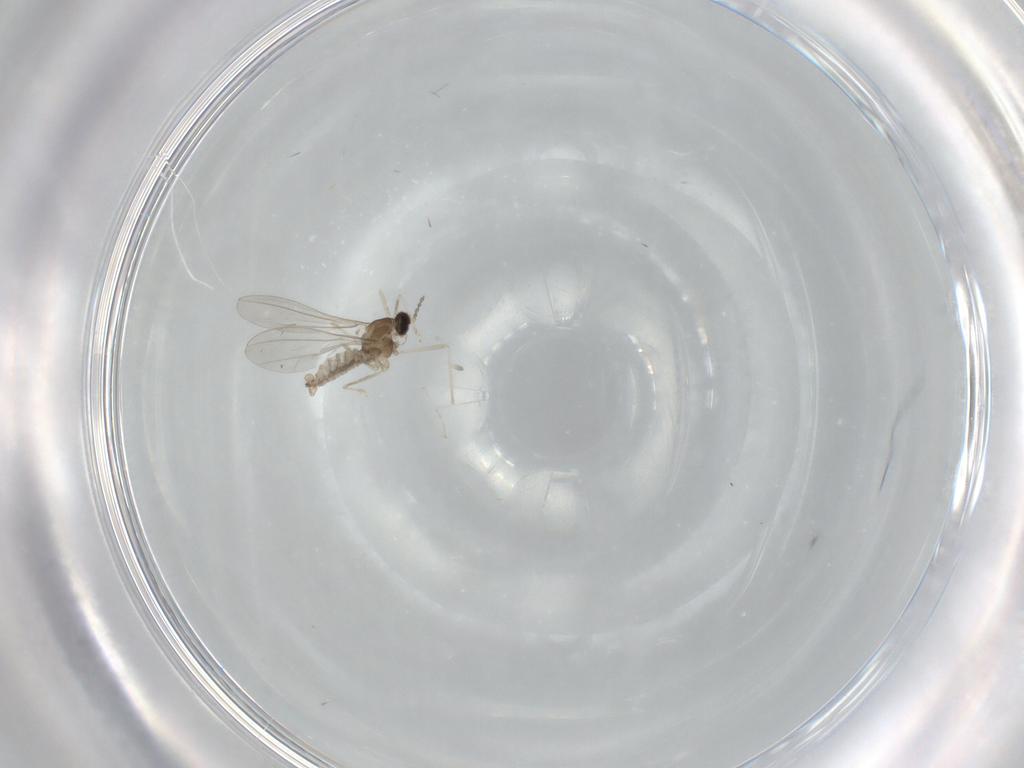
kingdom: Animalia
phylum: Arthropoda
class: Insecta
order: Diptera
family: Cecidomyiidae
